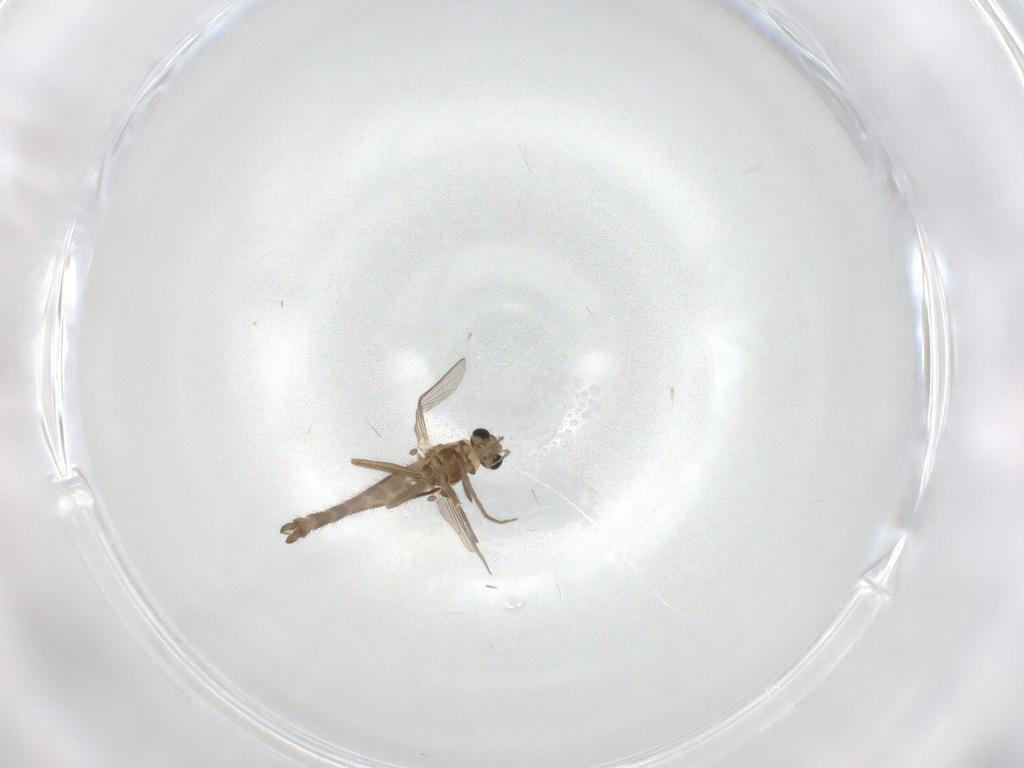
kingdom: Animalia
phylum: Arthropoda
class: Insecta
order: Diptera
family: Chironomidae
